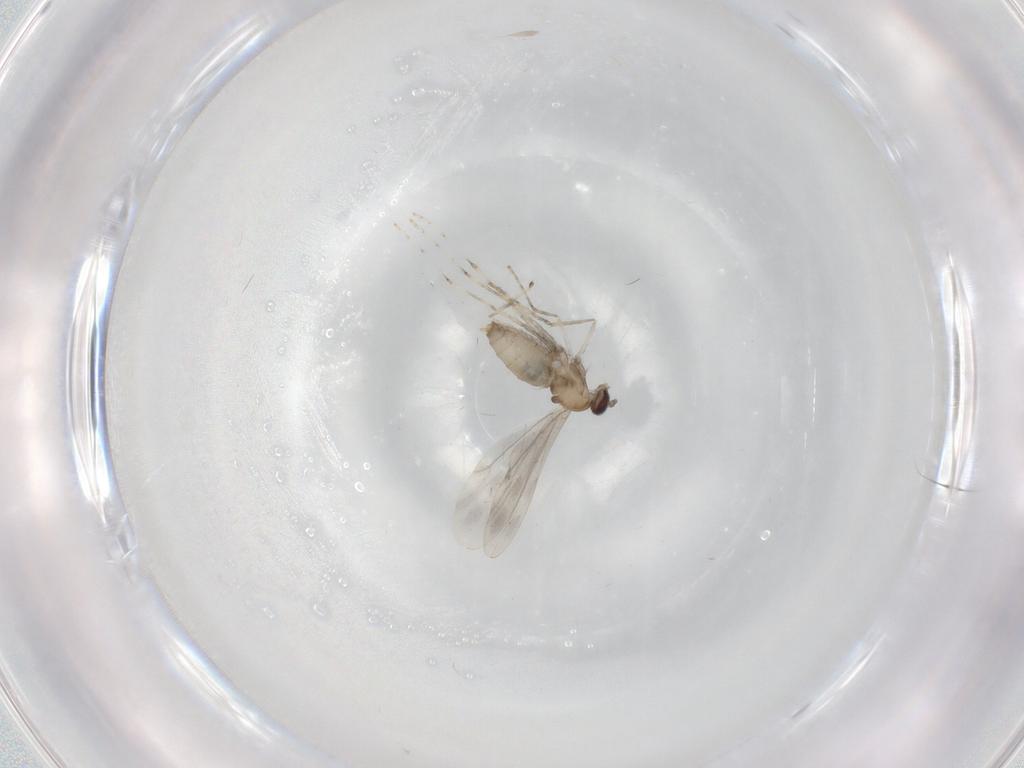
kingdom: Animalia
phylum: Arthropoda
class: Insecta
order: Diptera
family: Cecidomyiidae
